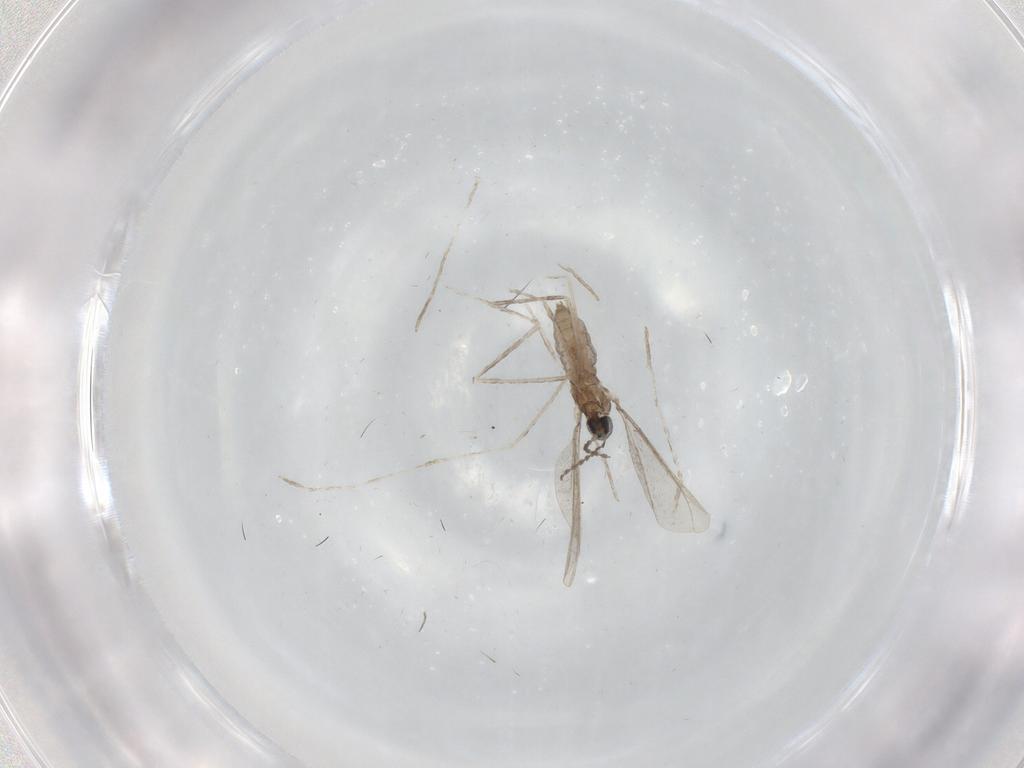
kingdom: Animalia
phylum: Arthropoda
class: Insecta
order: Diptera
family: Cecidomyiidae
